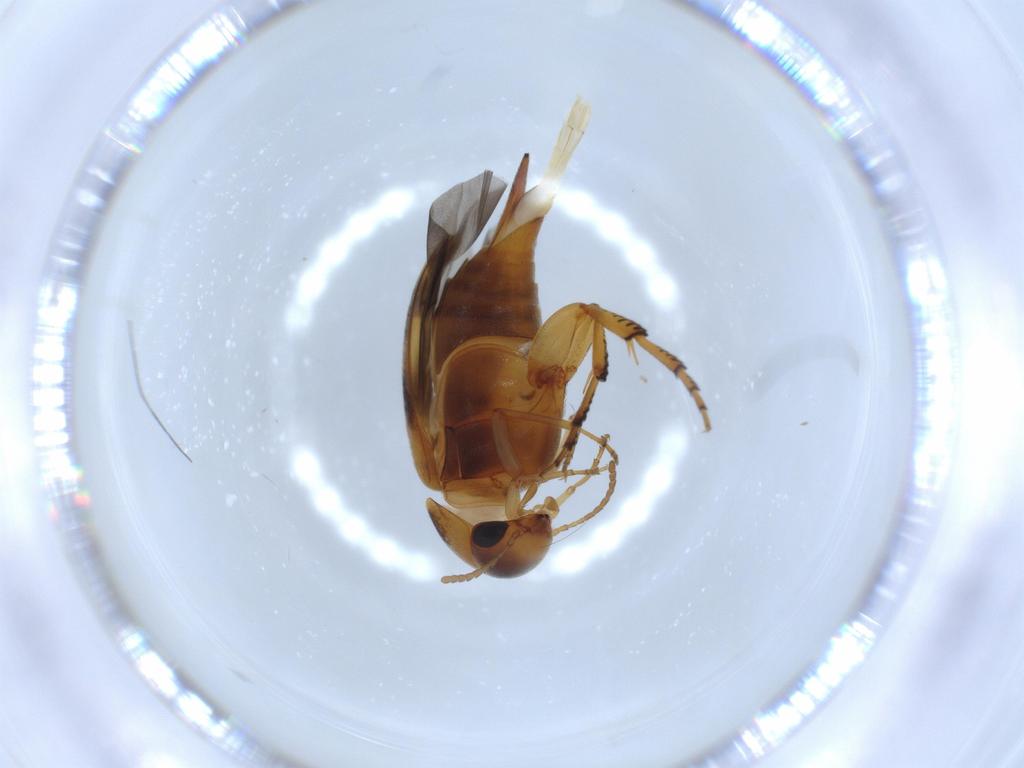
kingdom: Animalia
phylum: Arthropoda
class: Insecta
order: Coleoptera
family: Mordellidae
